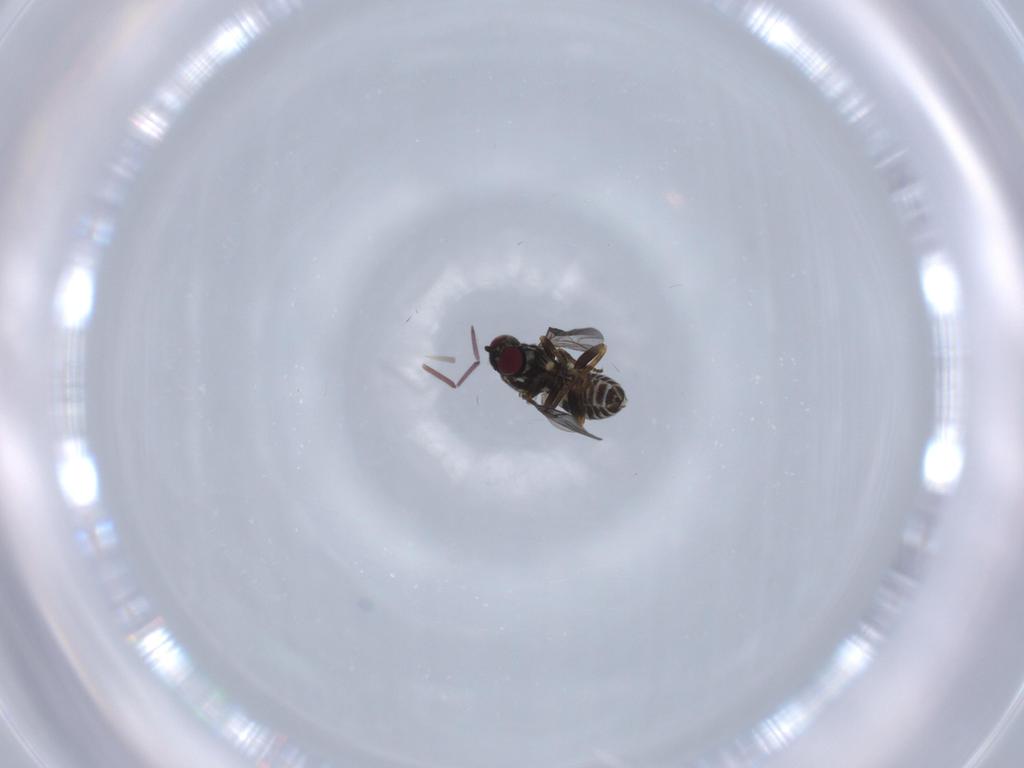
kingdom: Animalia
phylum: Arthropoda
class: Insecta
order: Diptera
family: Bombyliidae
